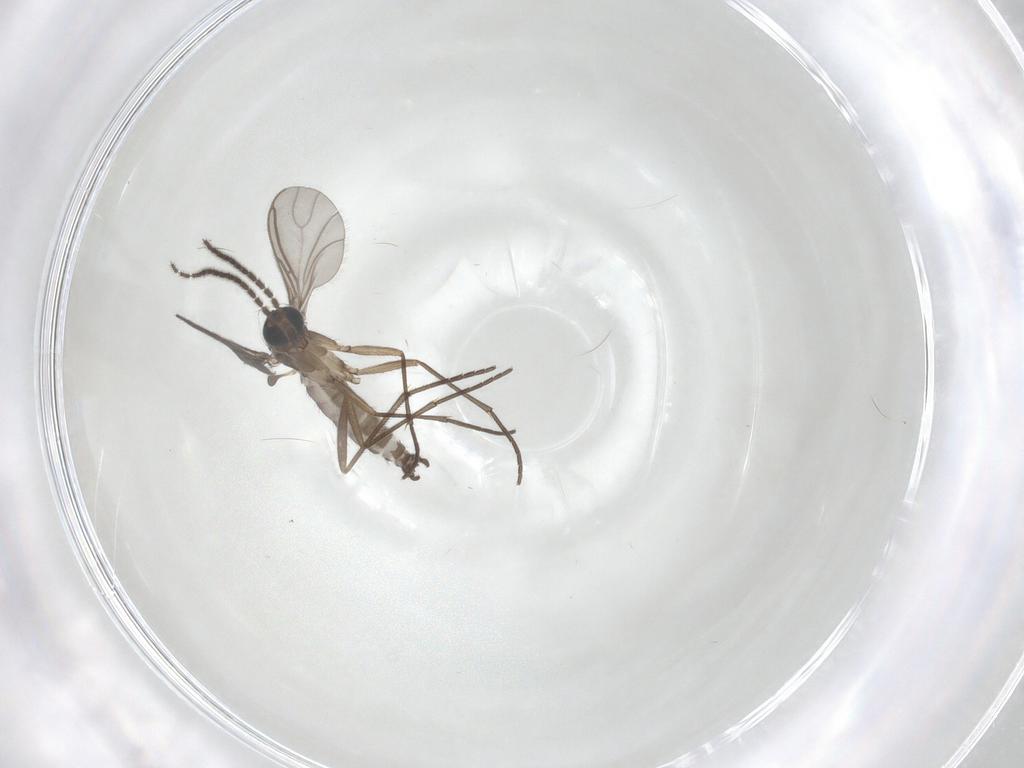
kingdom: Animalia
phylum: Arthropoda
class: Insecta
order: Diptera
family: Sciaridae
